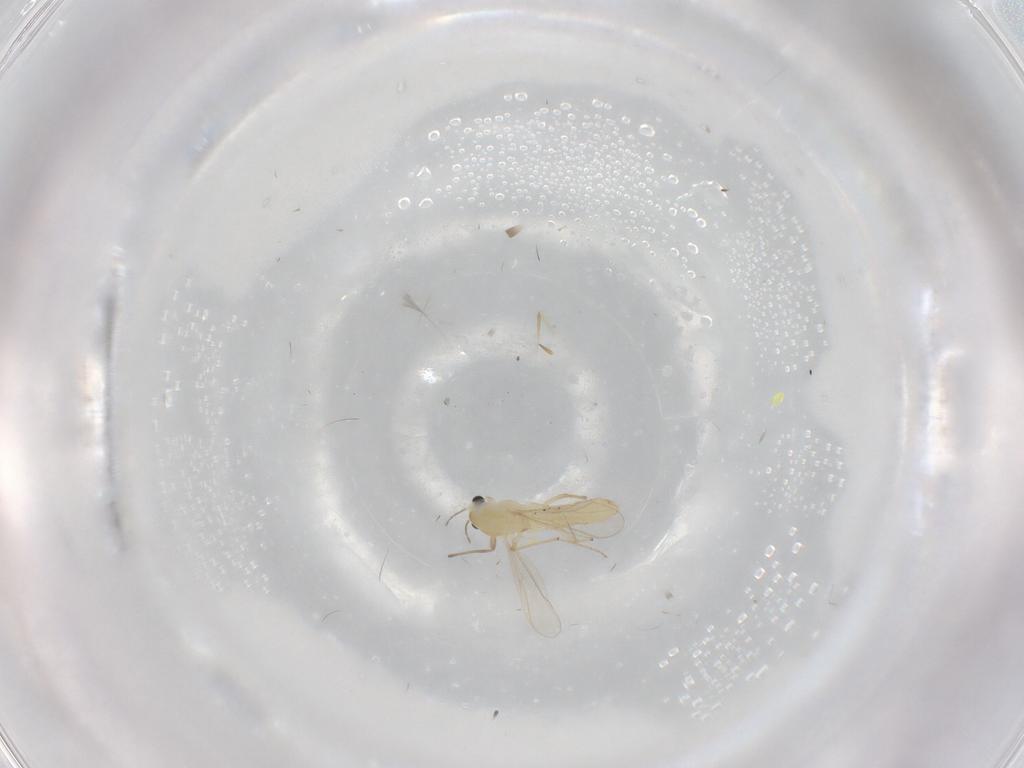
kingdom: Animalia
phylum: Arthropoda
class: Insecta
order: Diptera
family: Chironomidae
